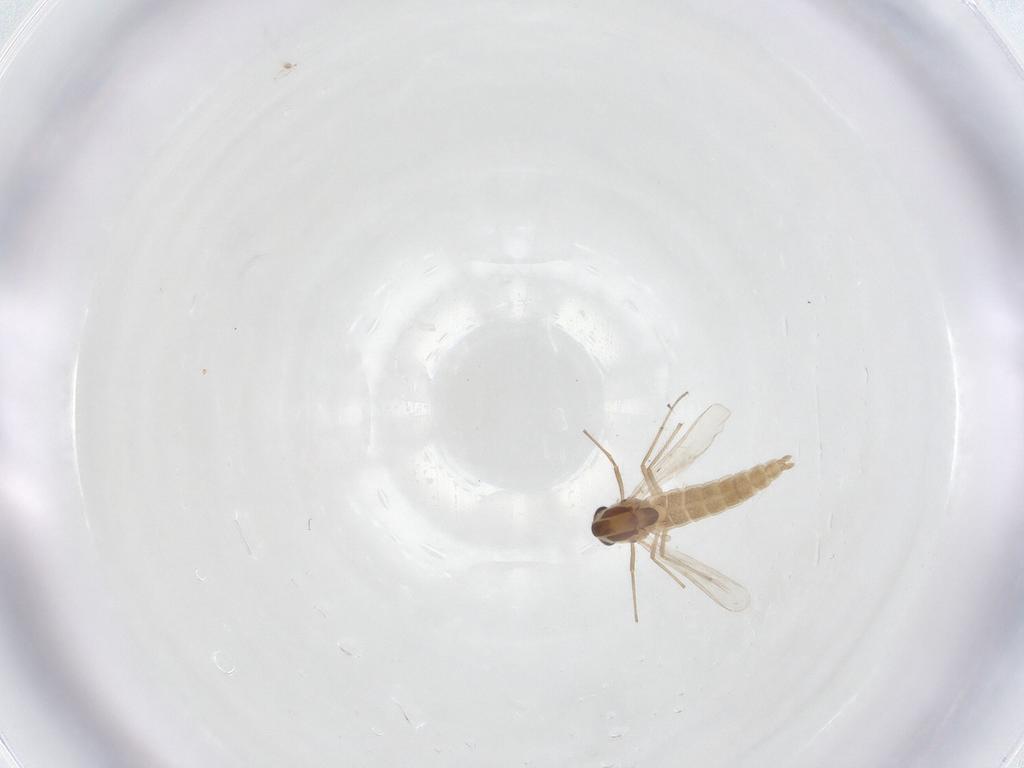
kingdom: Animalia
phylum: Arthropoda
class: Insecta
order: Diptera
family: Chironomidae
